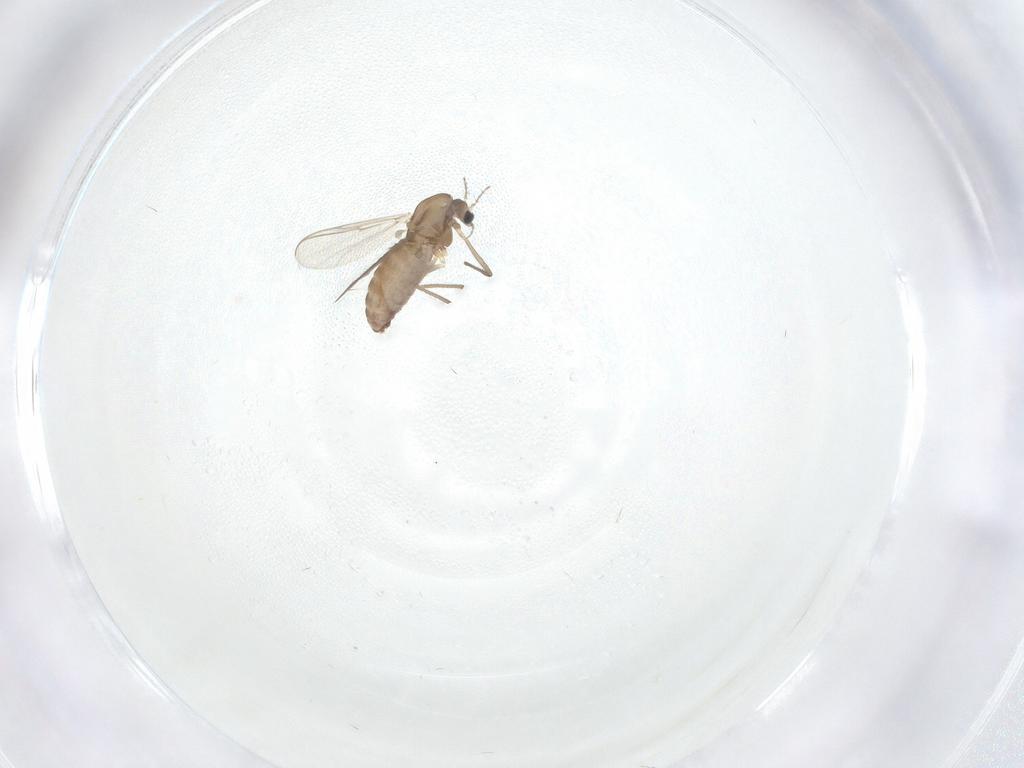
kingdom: Animalia
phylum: Arthropoda
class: Insecta
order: Diptera
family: Chironomidae
